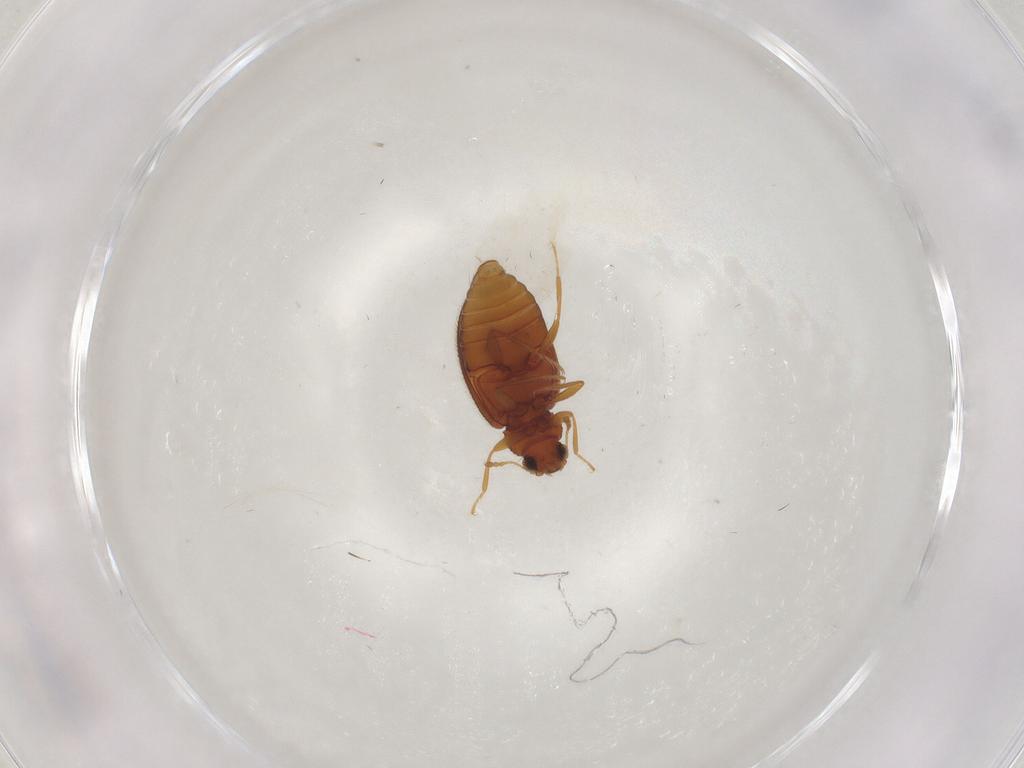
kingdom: Animalia
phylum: Arthropoda
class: Insecta
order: Coleoptera
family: Latridiidae
